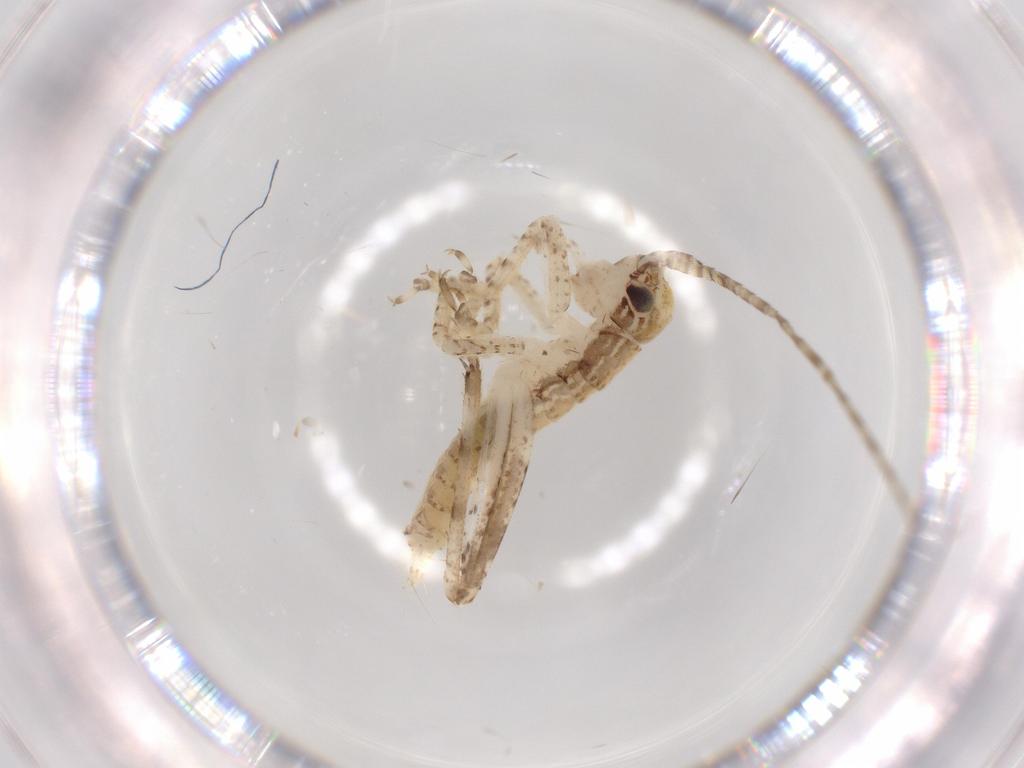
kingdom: Animalia
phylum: Arthropoda
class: Insecta
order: Orthoptera
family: Gryllidae
